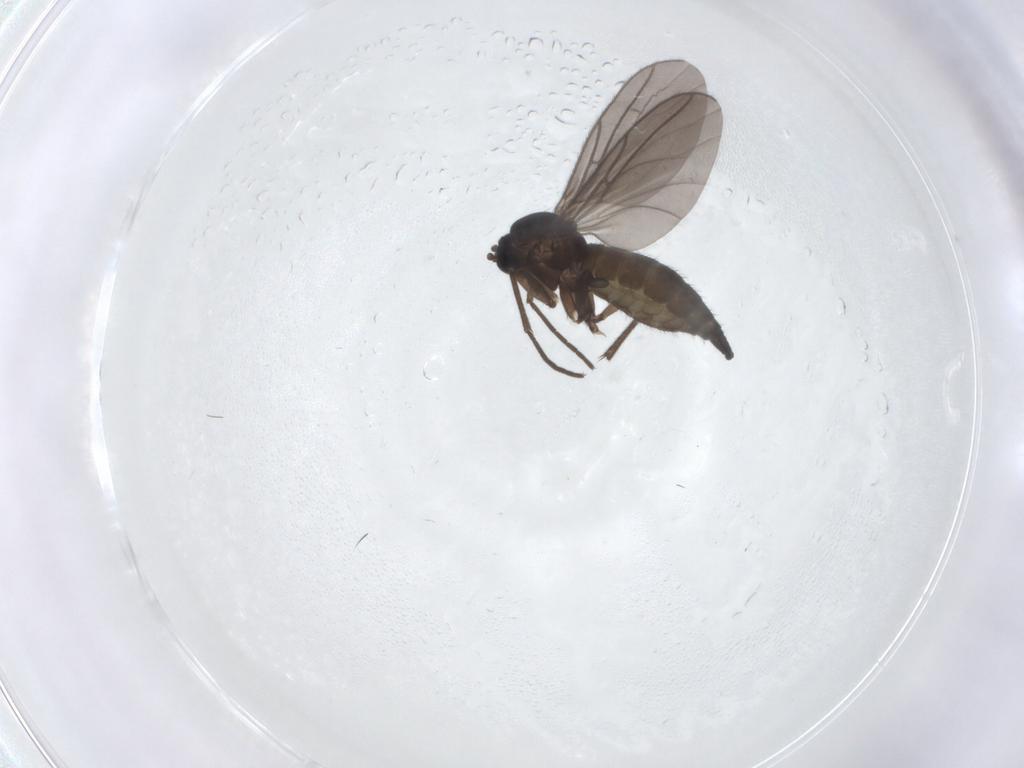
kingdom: Animalia
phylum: Arthropoda
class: Insecta
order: Diptera
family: Sciaridae
